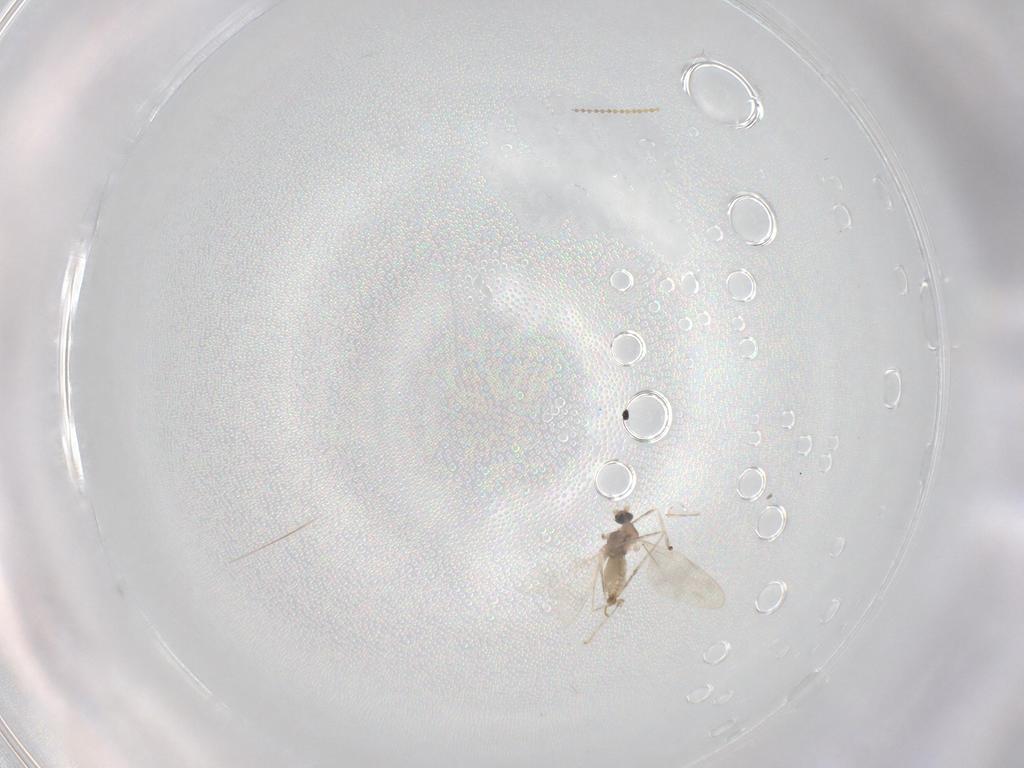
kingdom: Animalia
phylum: Arthropoda
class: Insecta
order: Diptera
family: Cecidomyiidae
